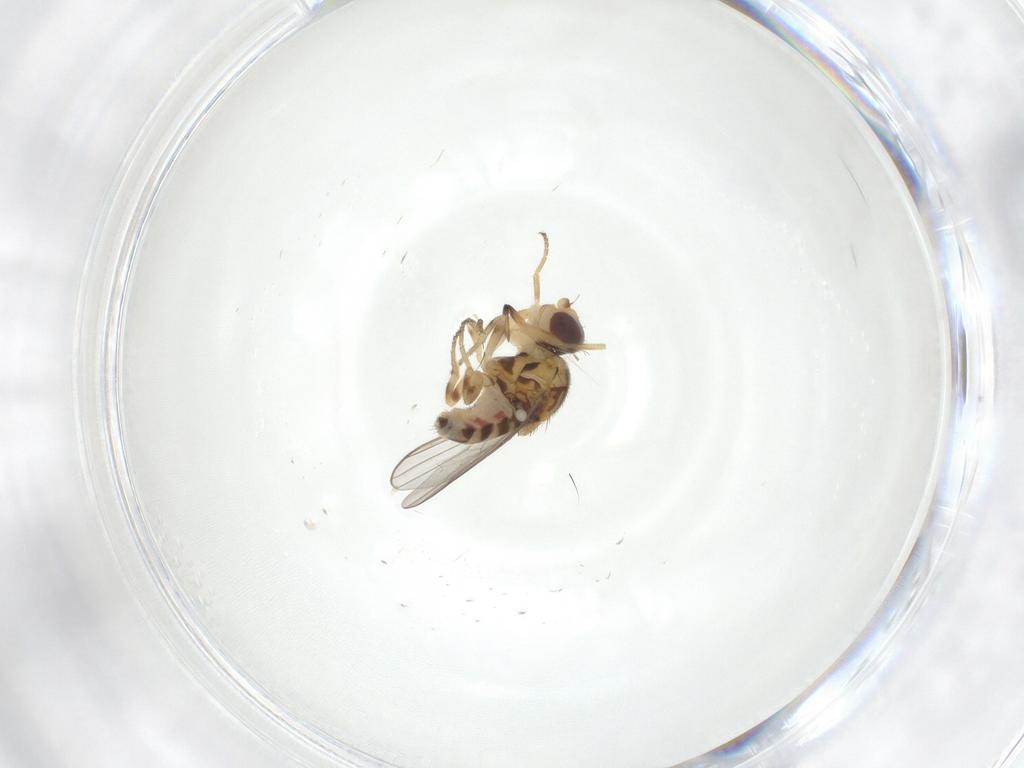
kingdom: Animalia
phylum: Arthropoda
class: Insecta
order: Diptera
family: Chloropidae
